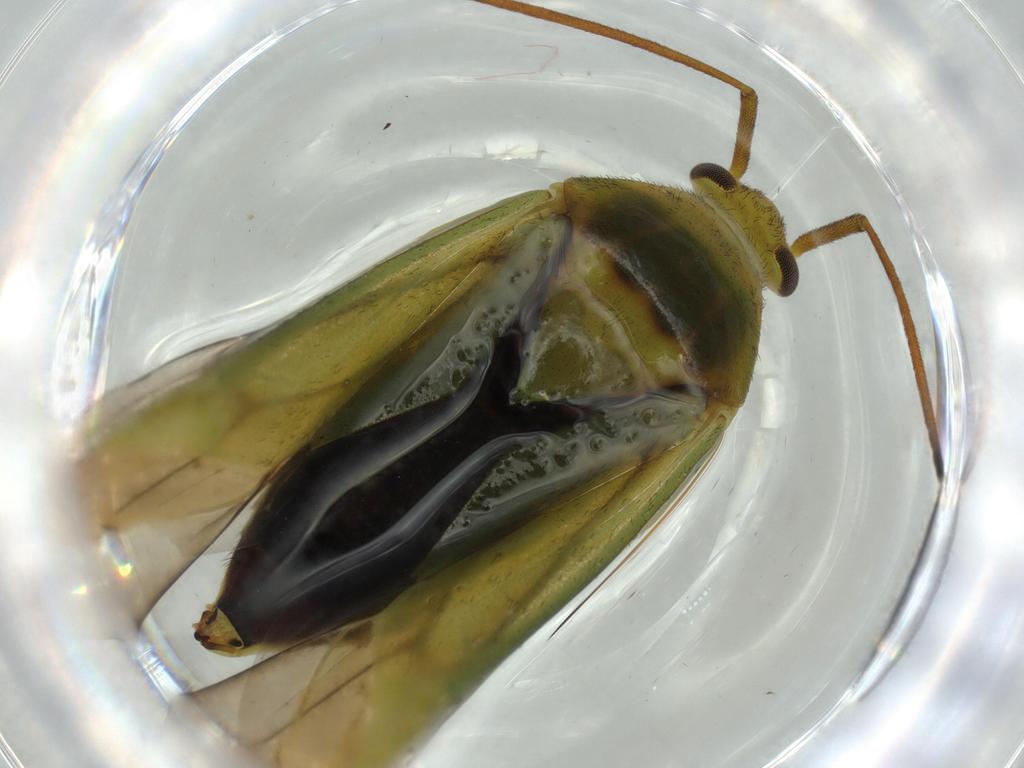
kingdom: Animalia
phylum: Arthropoda
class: Insecta
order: Hemiptera
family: Miridae
